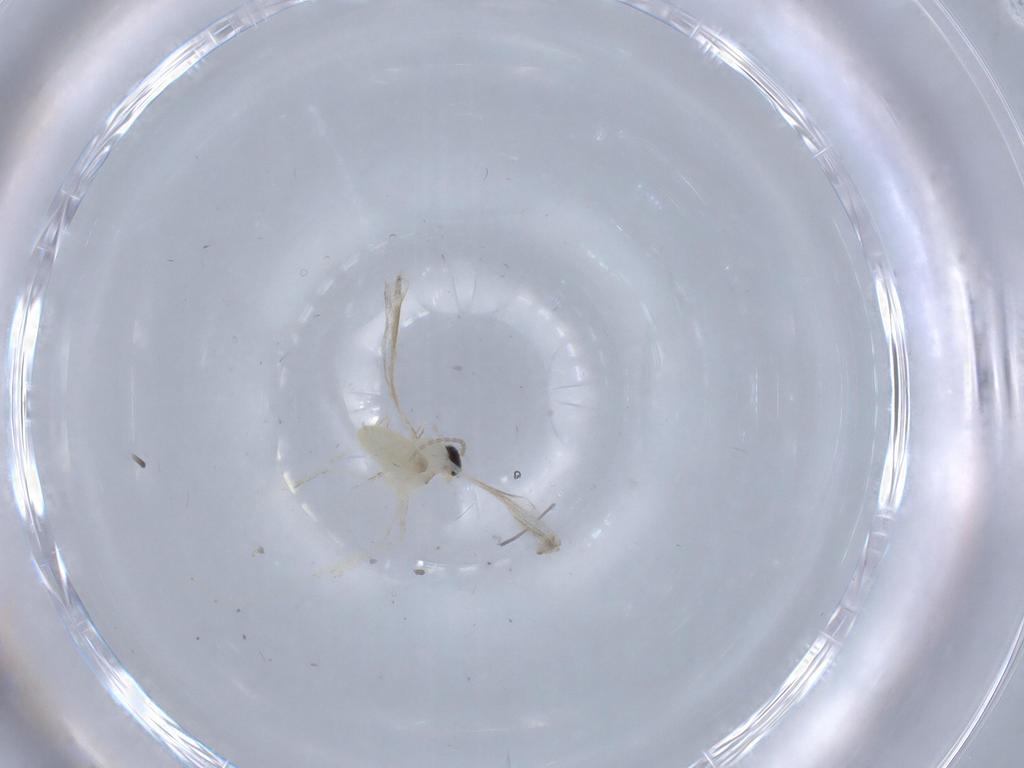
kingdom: Animalia
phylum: Arthropoda
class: Insecta
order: Diptera
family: Cecidomyiidae
